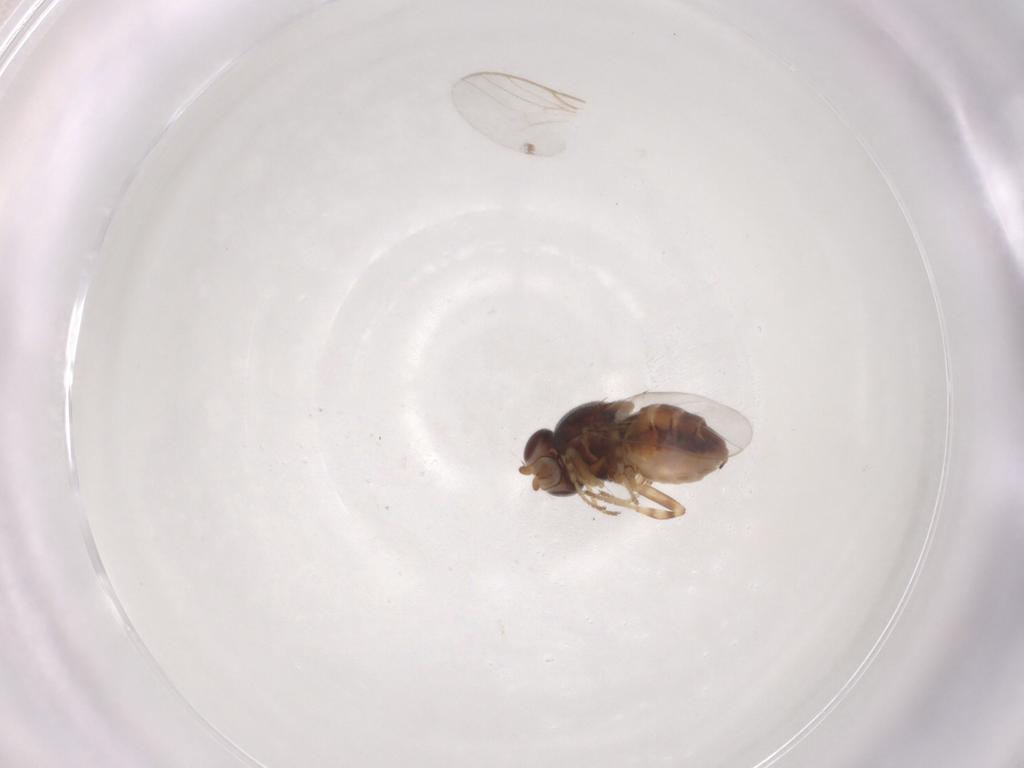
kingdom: Animalia
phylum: Arthropoda
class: Insecta
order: Diptera
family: Chloropidae
